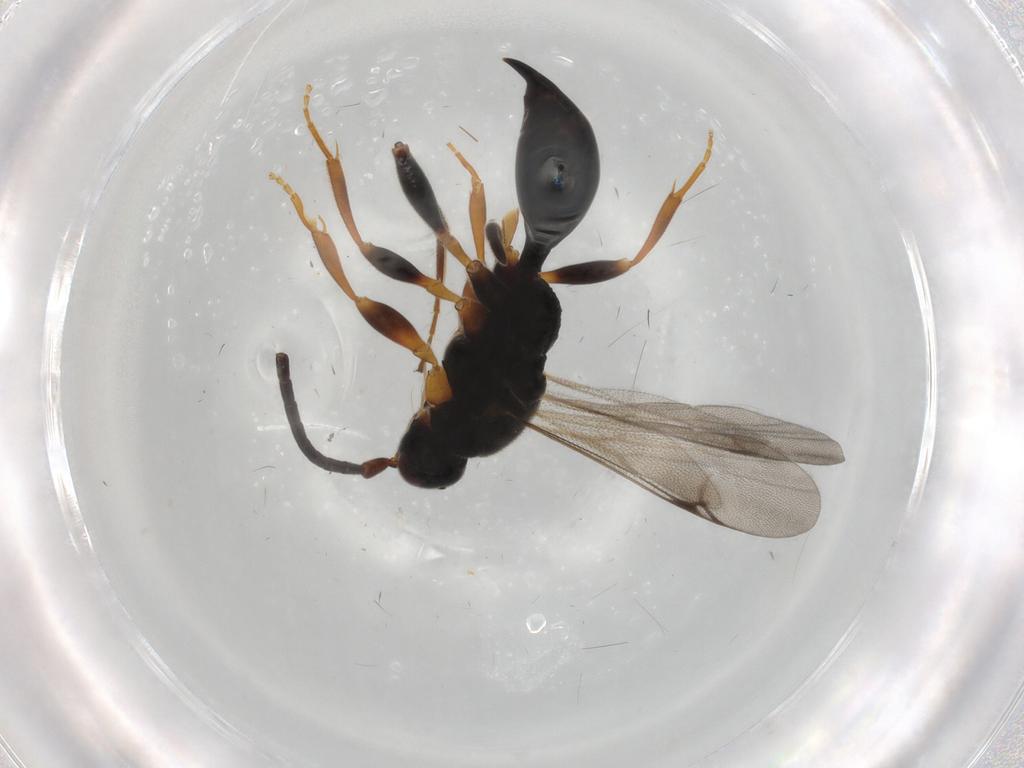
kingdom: Animalia
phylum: Arthropoda
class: Insecta
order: Hymenoptera
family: Proctotrupidae
